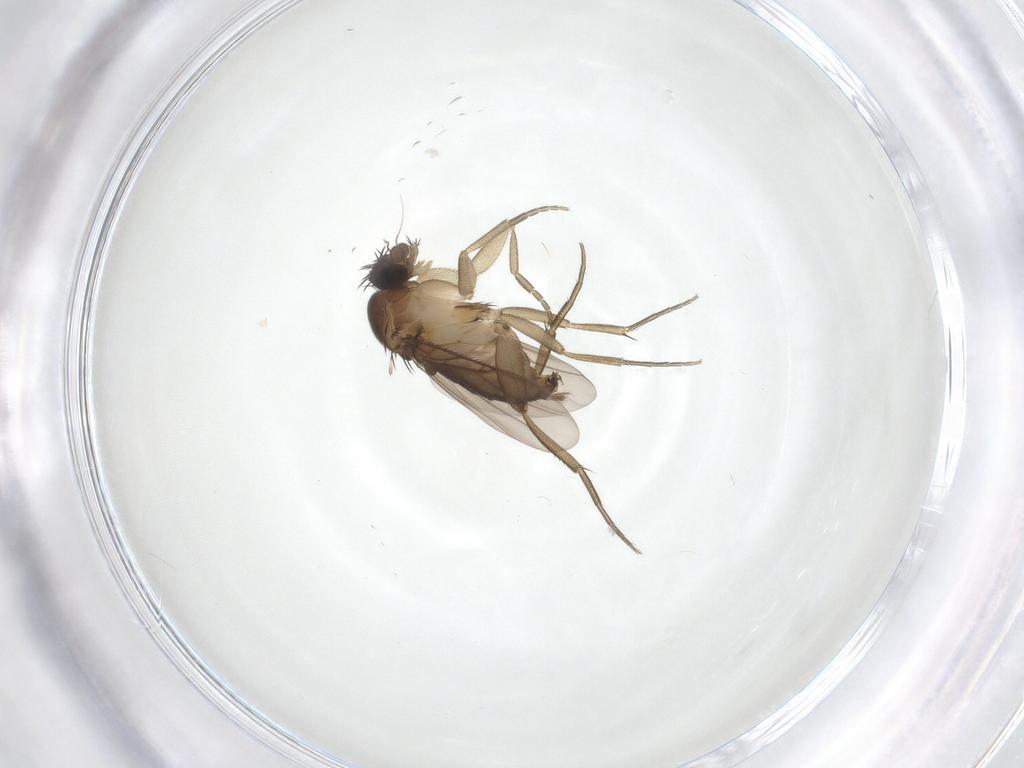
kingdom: Animalia
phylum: Arthropoda
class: Insecta
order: Diptera
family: Phoridae
